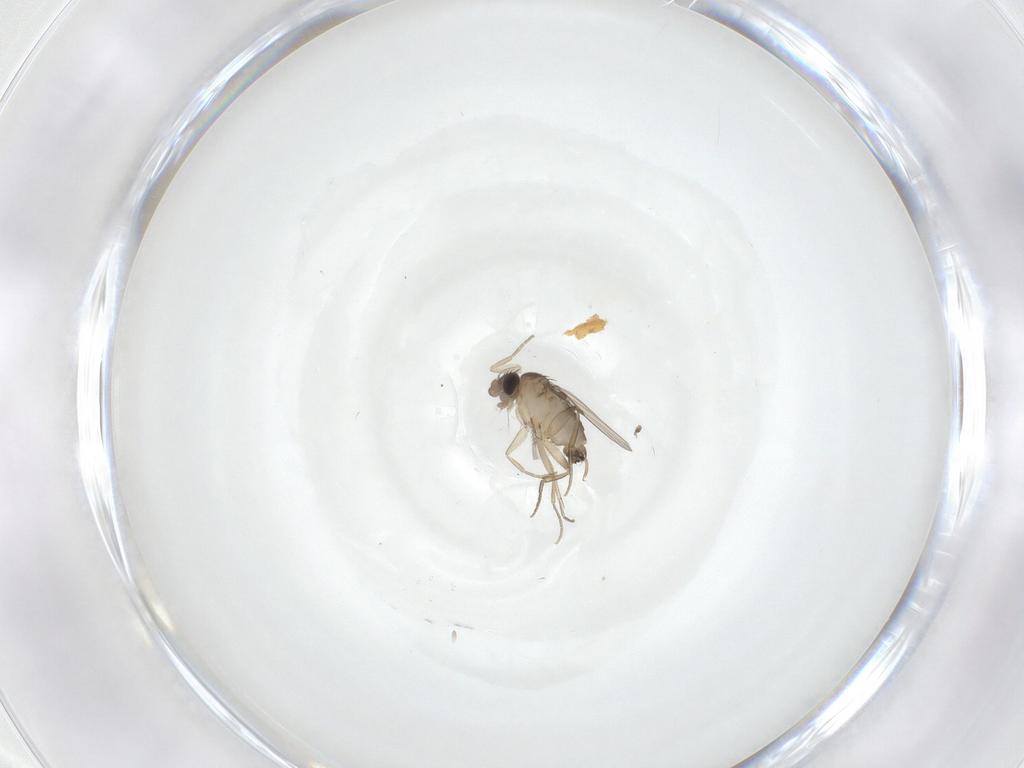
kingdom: Animalia
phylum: Arthropoda
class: Insecta
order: Diptera
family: Phoridae
